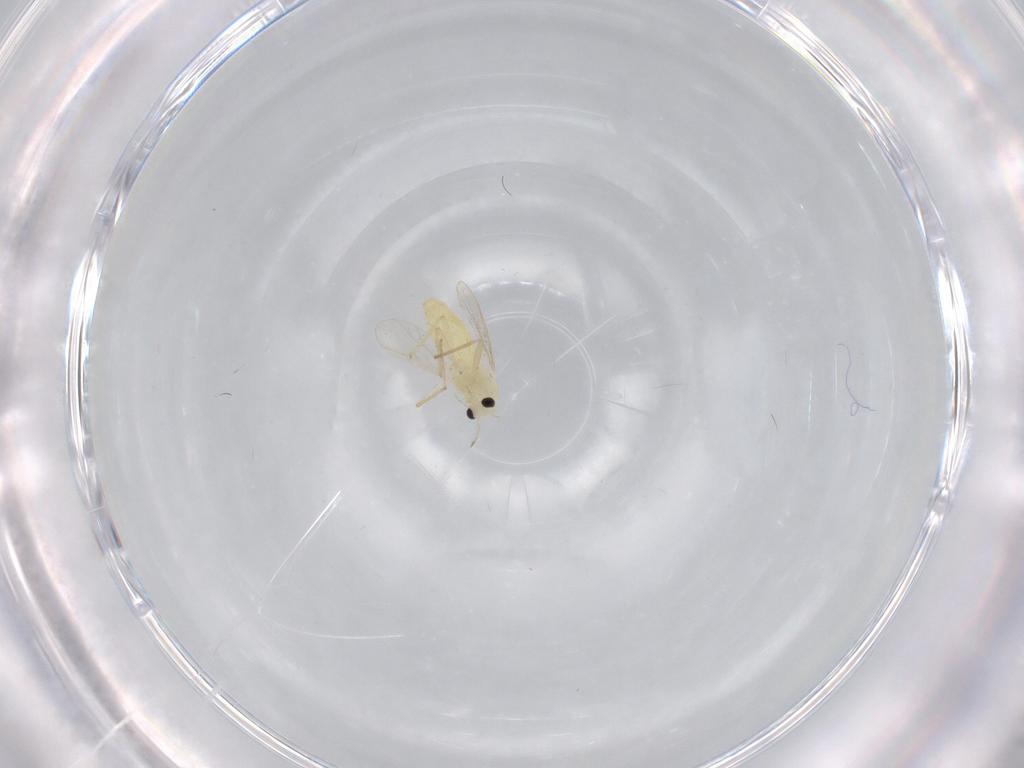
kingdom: Animalia
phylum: Arthropoda
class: Insecta
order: Diptera
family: Chironomidae
